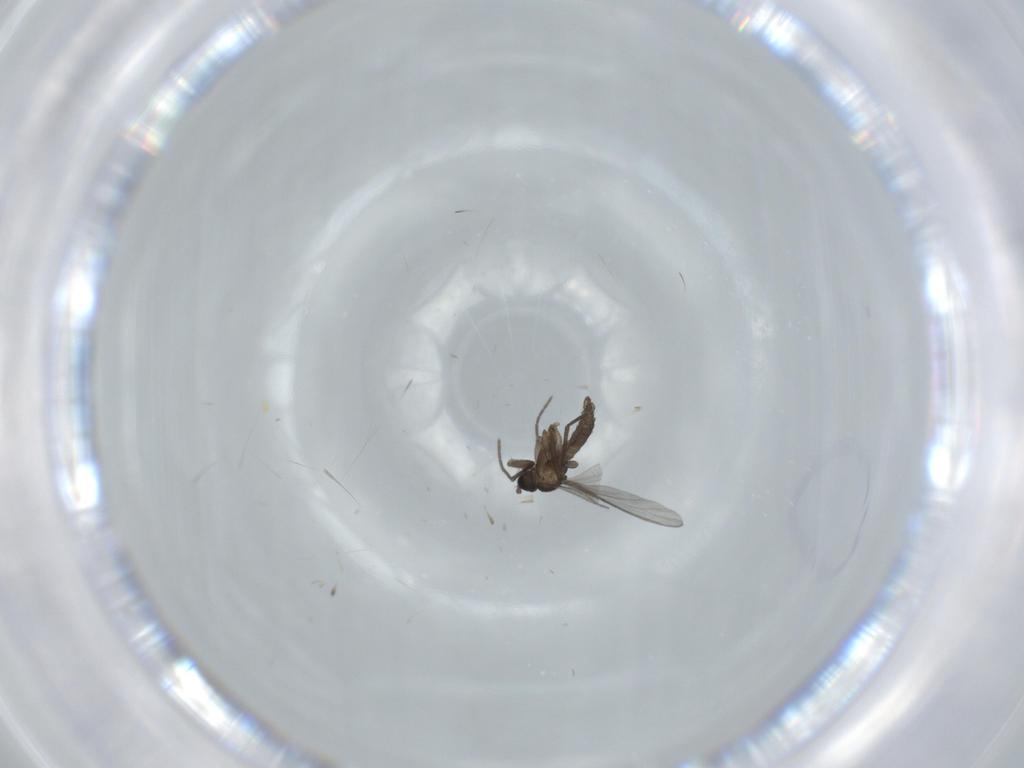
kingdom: Animalia
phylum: Arthropoda
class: Insecta
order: Diptera
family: Sciaridae
